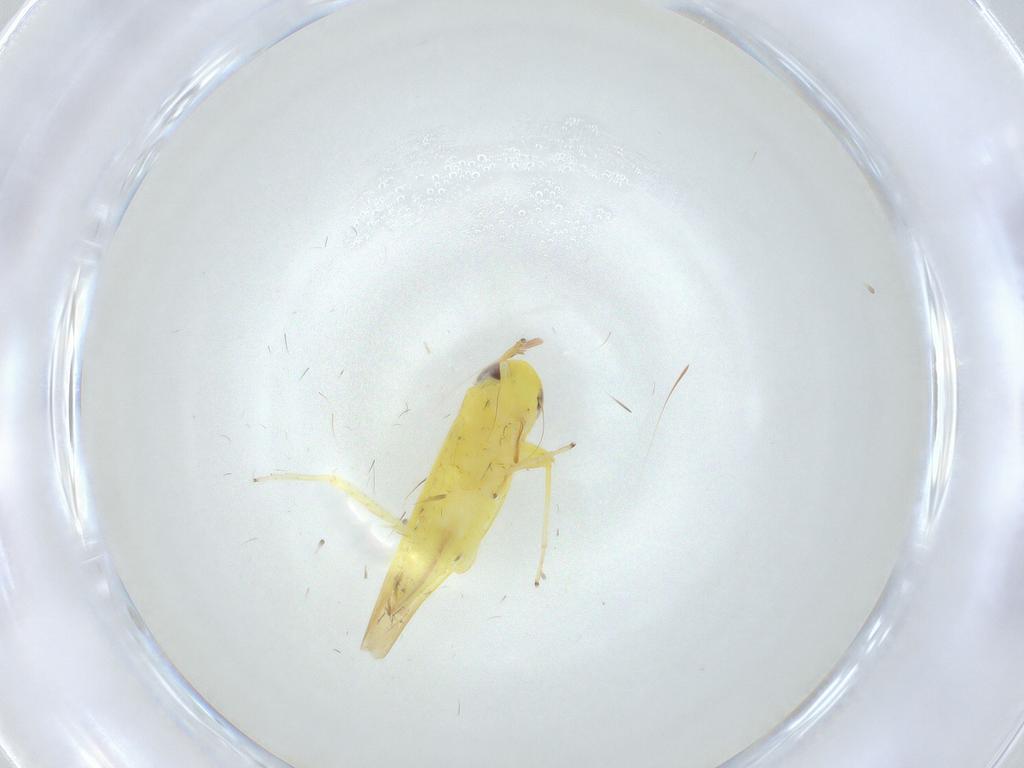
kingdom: Animalia
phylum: Arthropoda
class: Insecta
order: Hemiptera
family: Cicadellidae
